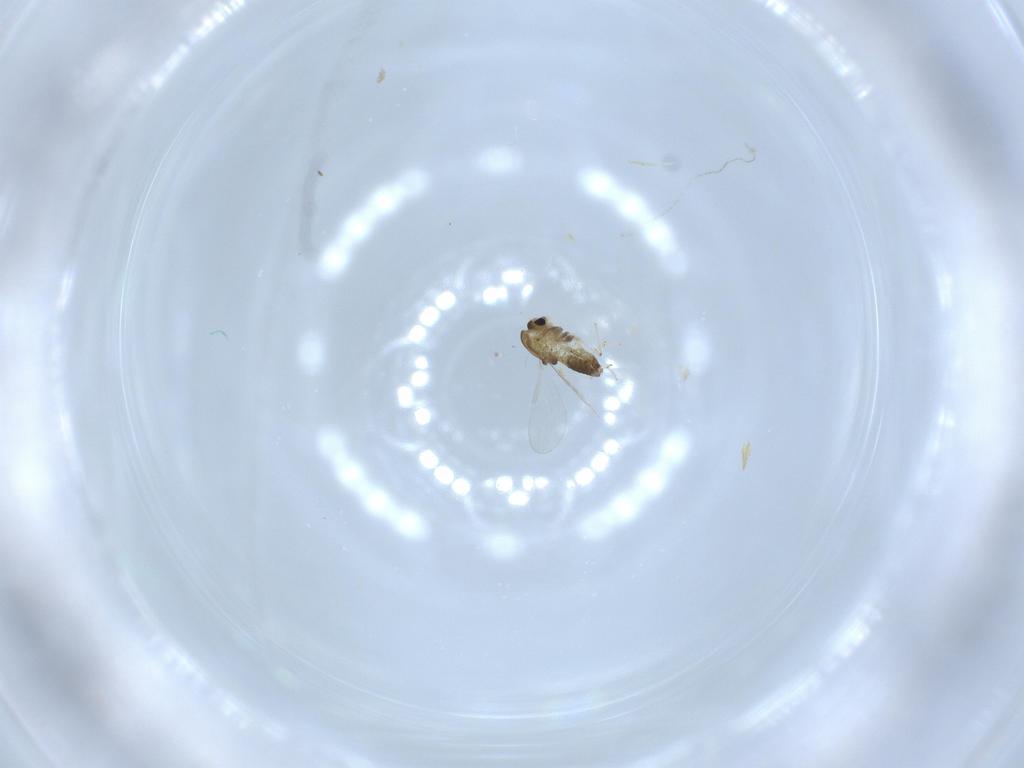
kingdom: Animalia
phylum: Arthropoda
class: Insecta
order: Diptera
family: Chironomidae
